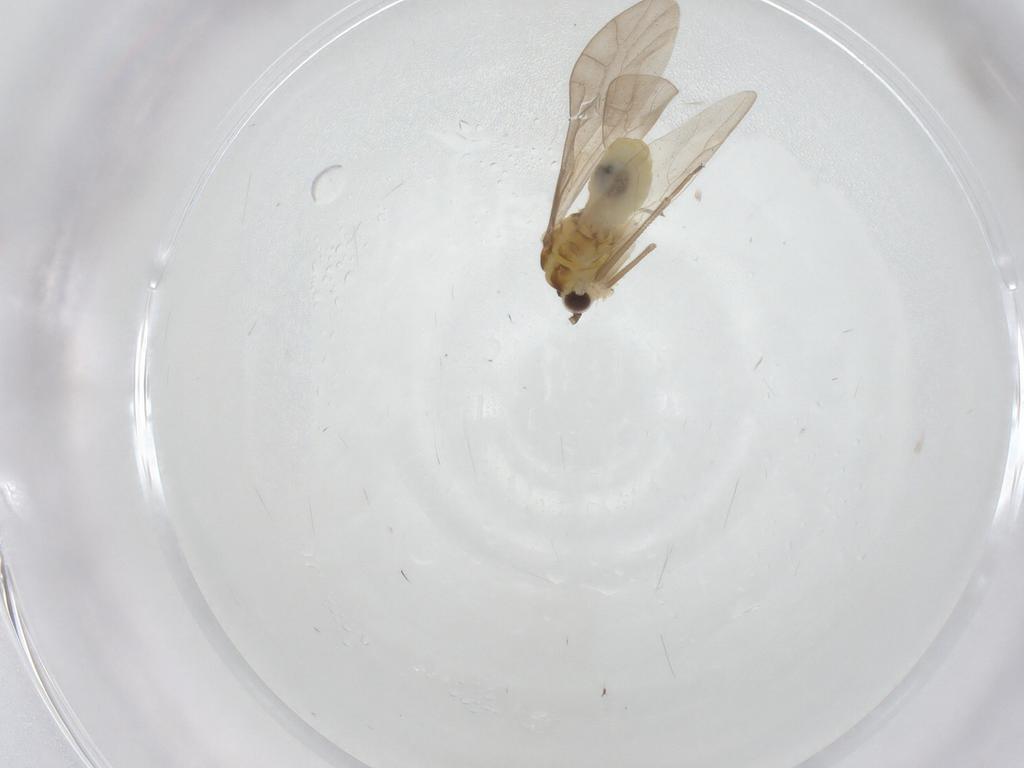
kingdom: Animalia
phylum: Arthropoda
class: Insecta
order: Psocodea
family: Caeciliusidae
